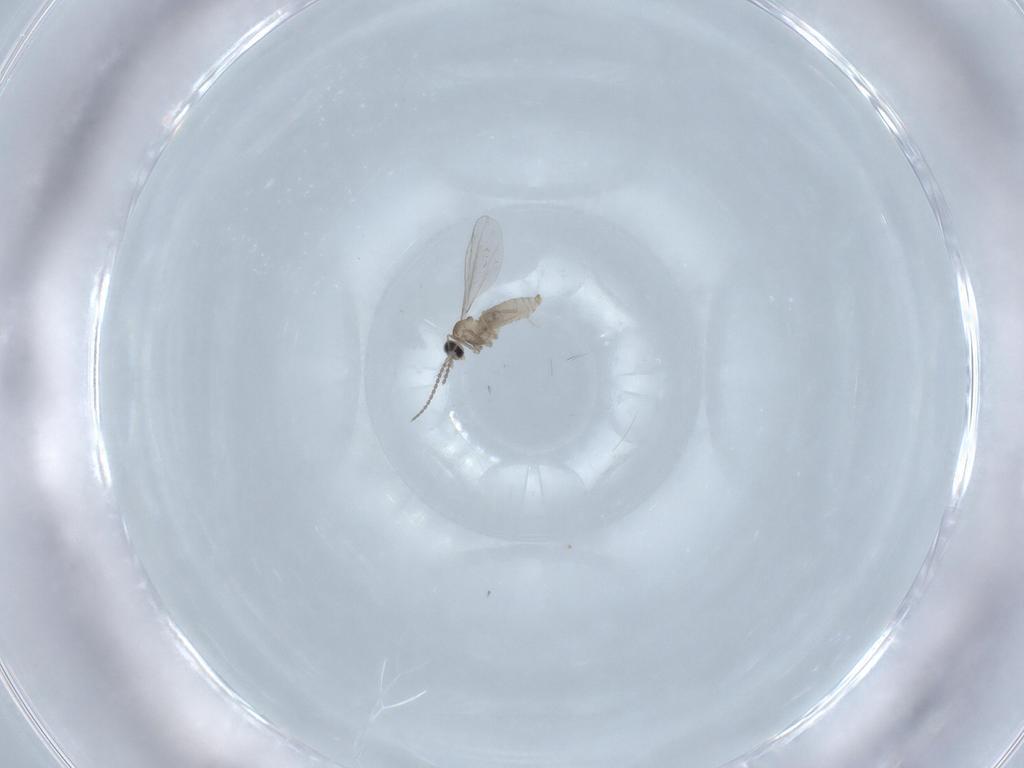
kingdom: Animalia
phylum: Arthropoda
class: Insecta
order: Diptera
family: Cecidomyiidae
